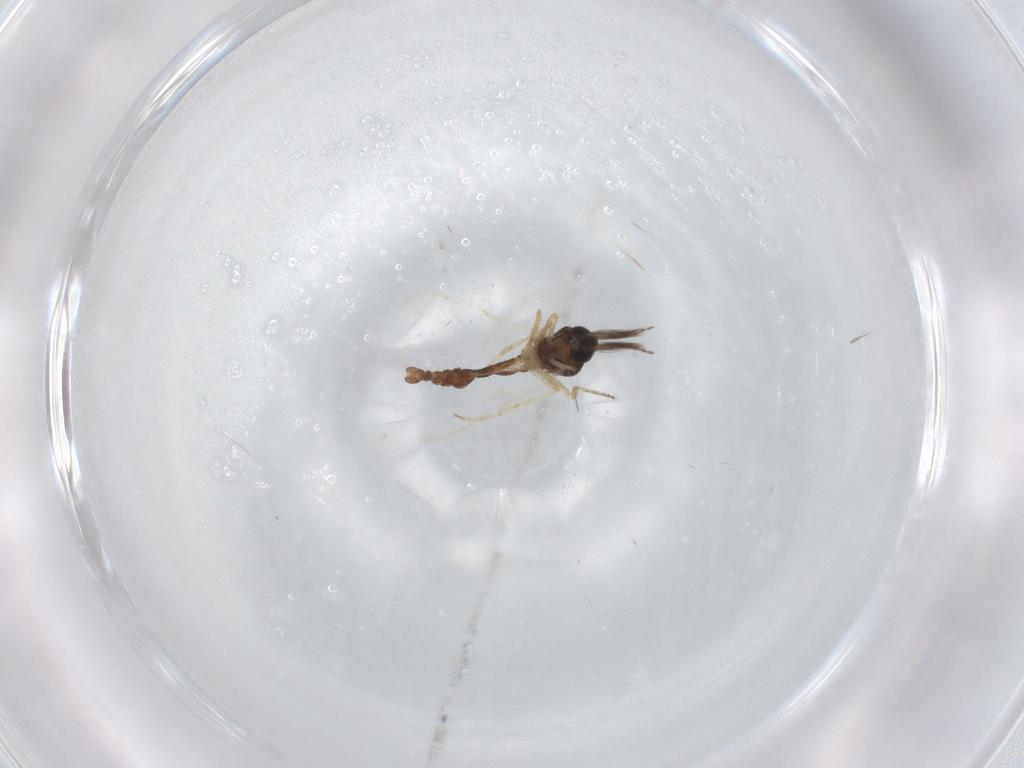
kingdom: Animalia
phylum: Arthropoda
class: Insecta
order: Diptera
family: Ceratopogonidae
